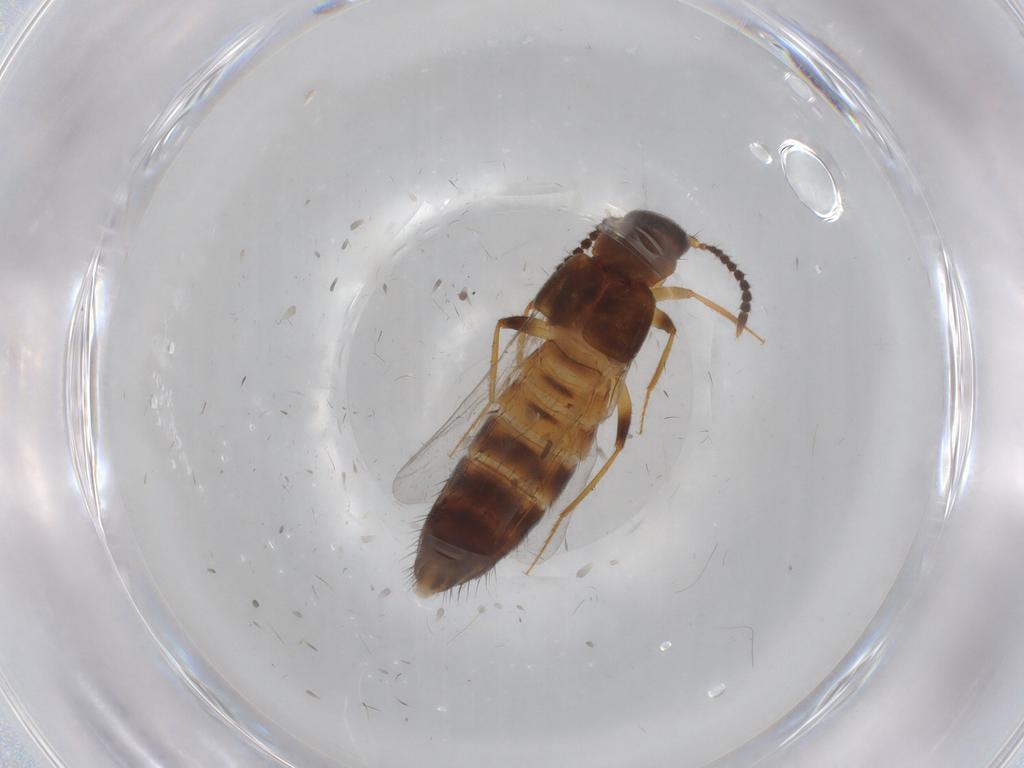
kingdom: Animalia
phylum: Arthropoda
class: Insecta
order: Coleoptera
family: Staphylinidae
